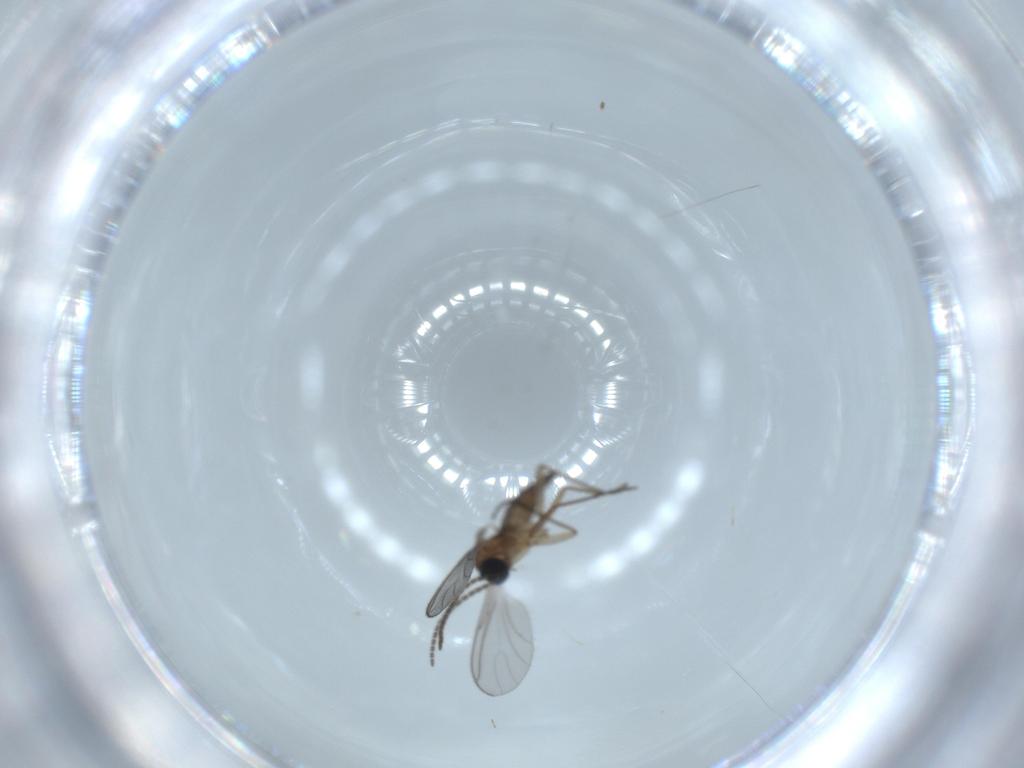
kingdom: Animalia
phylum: Arthropoda
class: Insecta
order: Diptera
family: Sciaridae
